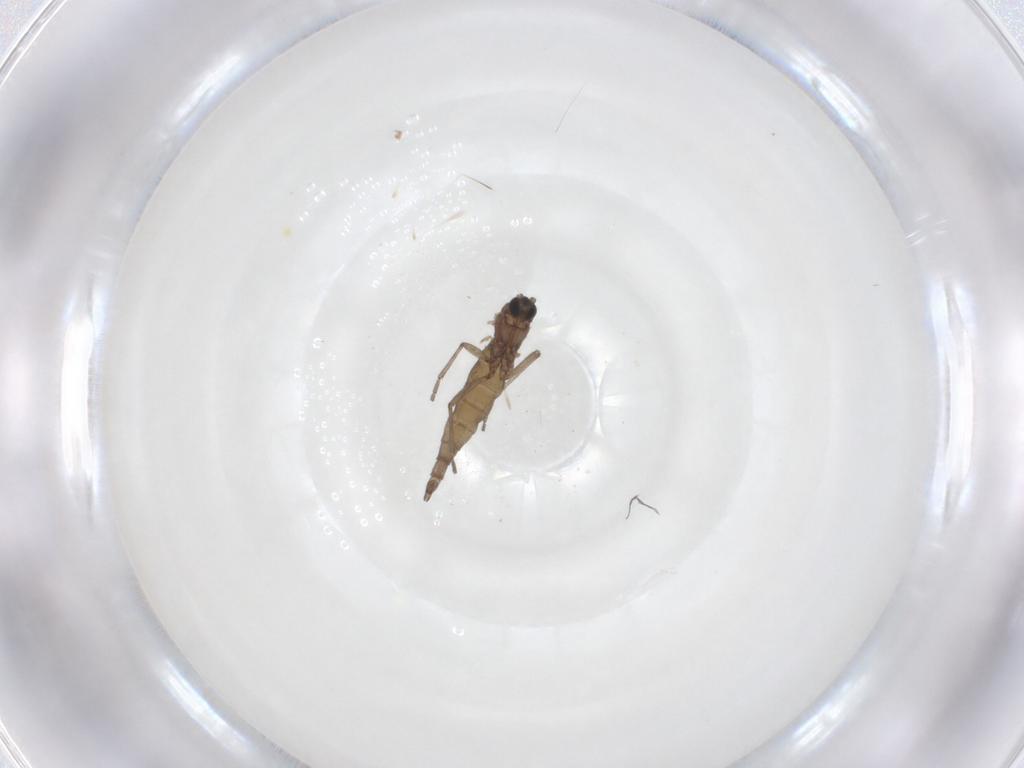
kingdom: Animalia
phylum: Arthropoda
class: Insecta
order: Diptera
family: Sciaridae
